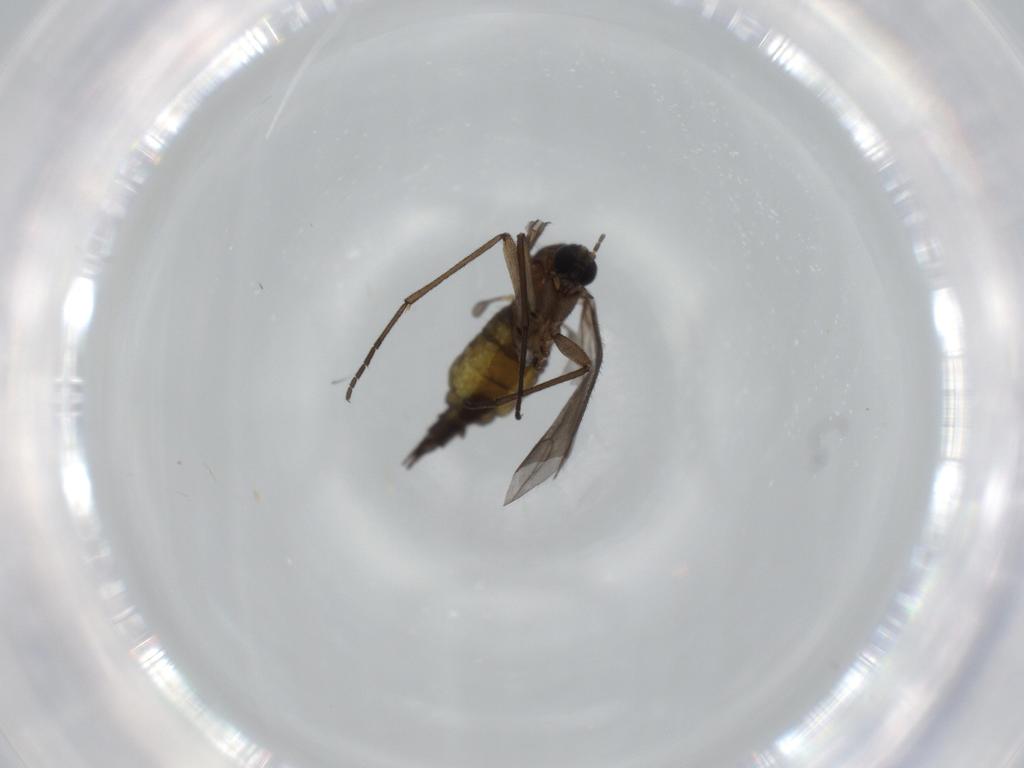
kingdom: Animalia
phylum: Arthropoda
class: Insecta
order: Diptera
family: Sciaridae
